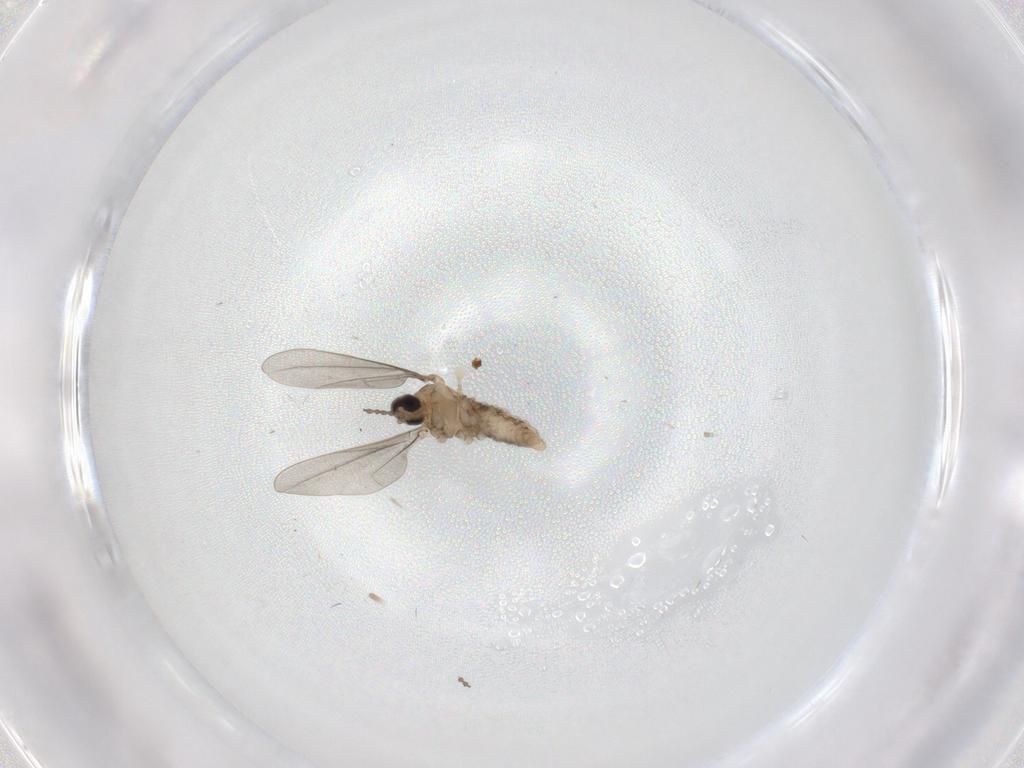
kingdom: Animalia
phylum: Arthropoda
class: Insecta
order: Diptera
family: Cecidomyiidae
